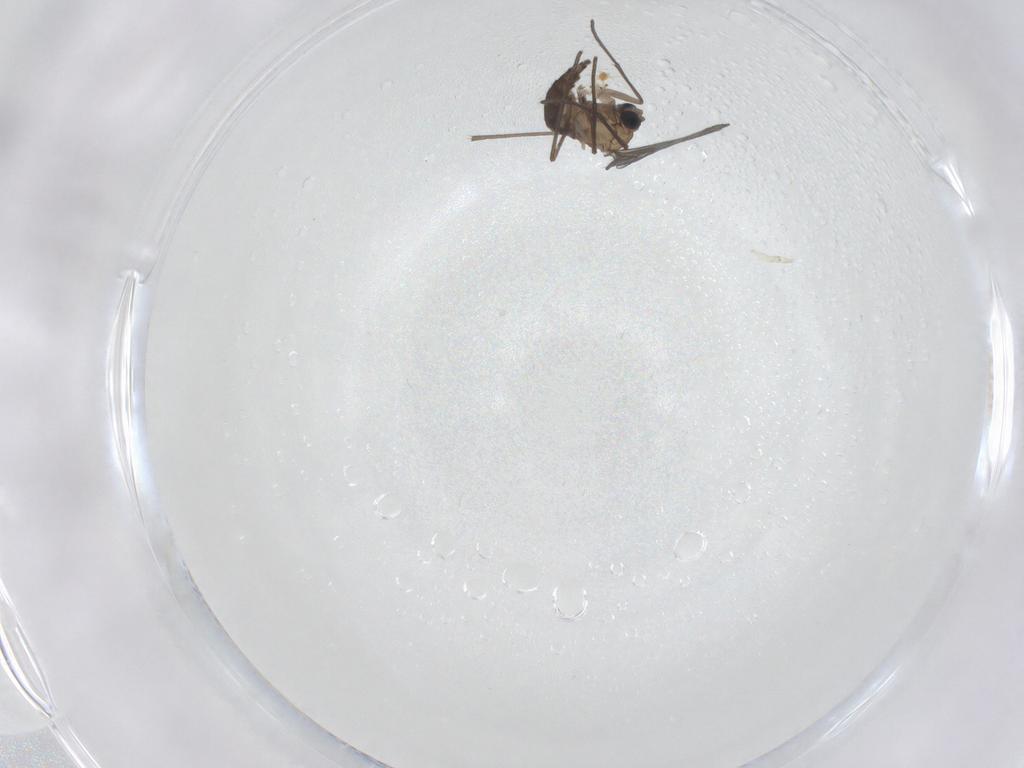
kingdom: Animalia
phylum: Arthropoda
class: Insecta
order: Diptera
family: Sciaridae
